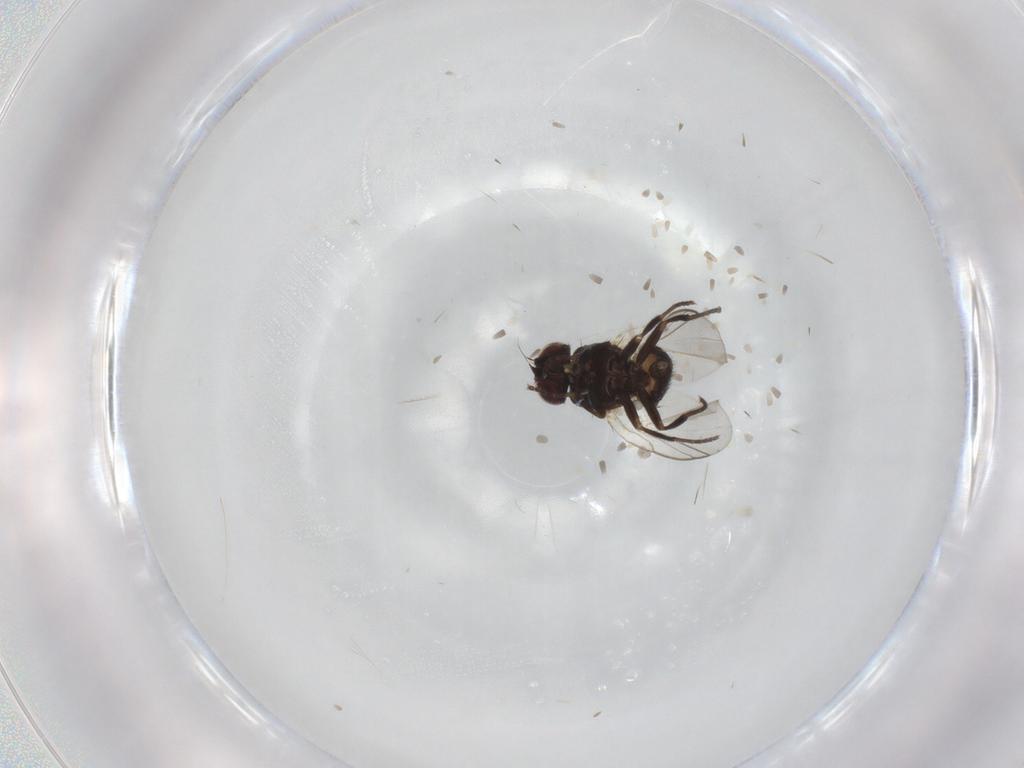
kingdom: Animalia
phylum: Arthropoda
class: Insecta
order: Diptera
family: Agromyzidae
